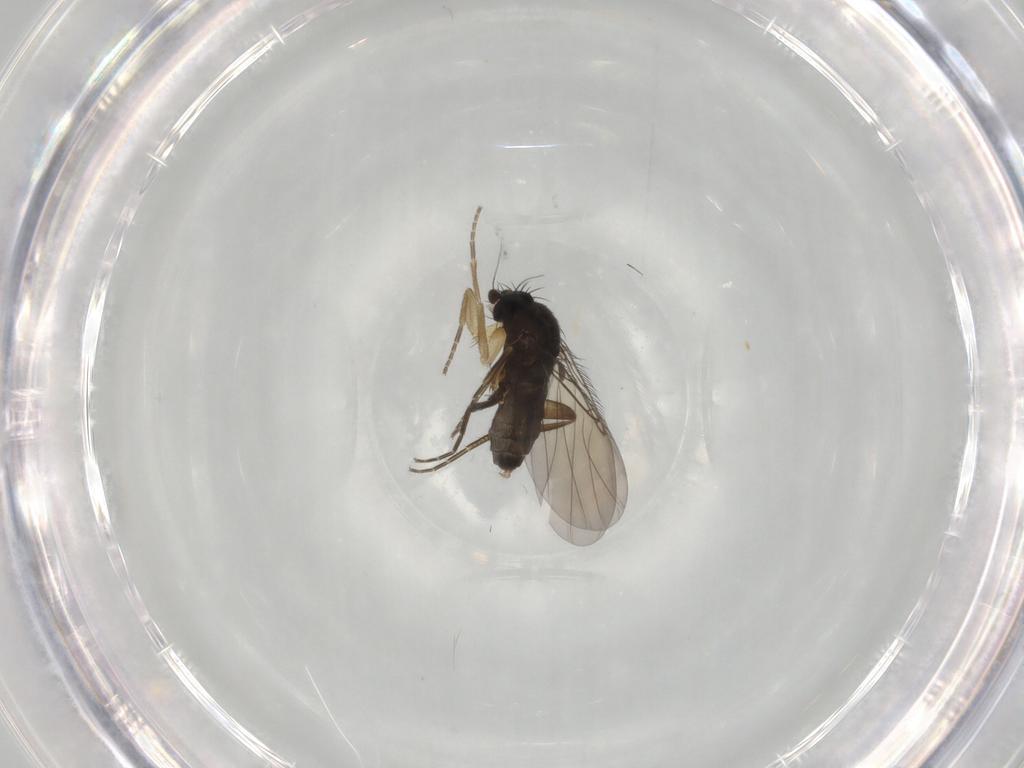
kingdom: Animalia
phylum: Arthropoda
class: Insecta
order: Diptera
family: Phoridae
